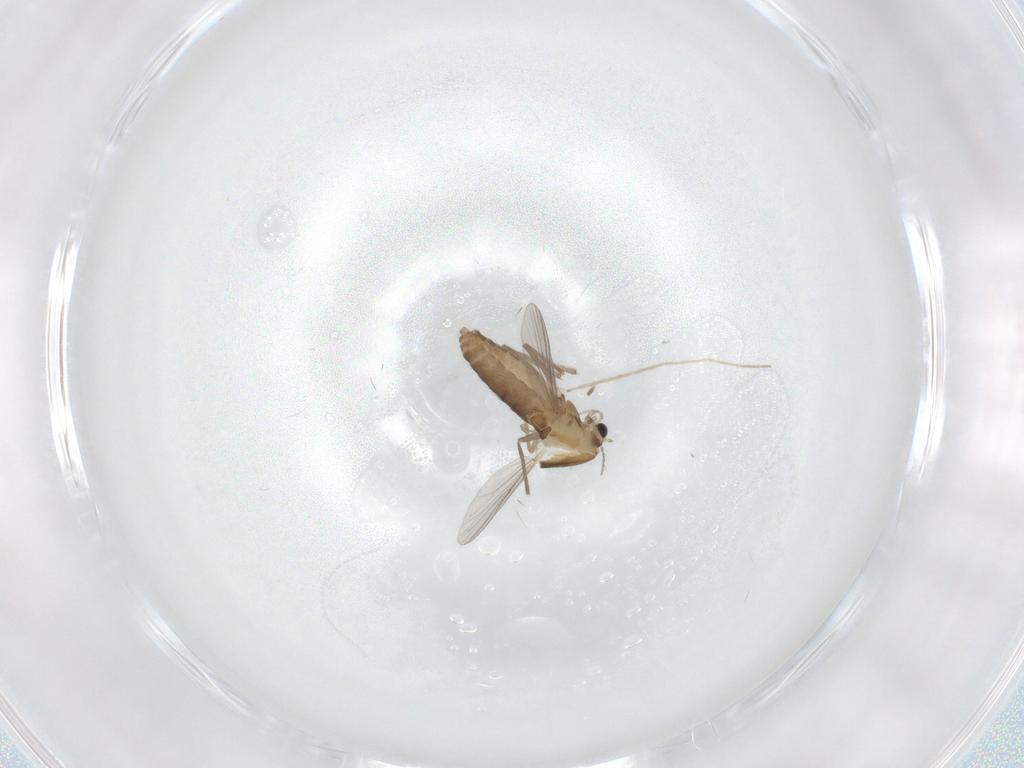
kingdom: Animalia
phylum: Arthropoda
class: Insecta
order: Diptera
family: Chironomidae
